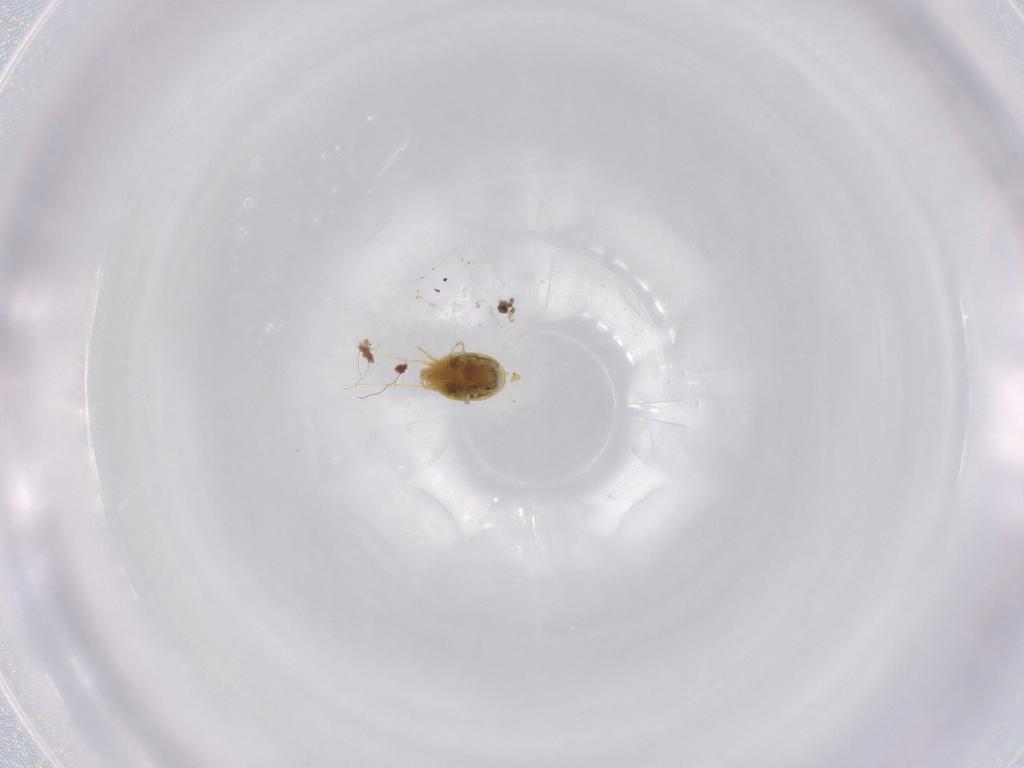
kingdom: Animalia
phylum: Arthropoda
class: Arachnida
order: Trombidiformes
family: Tetranychidae
